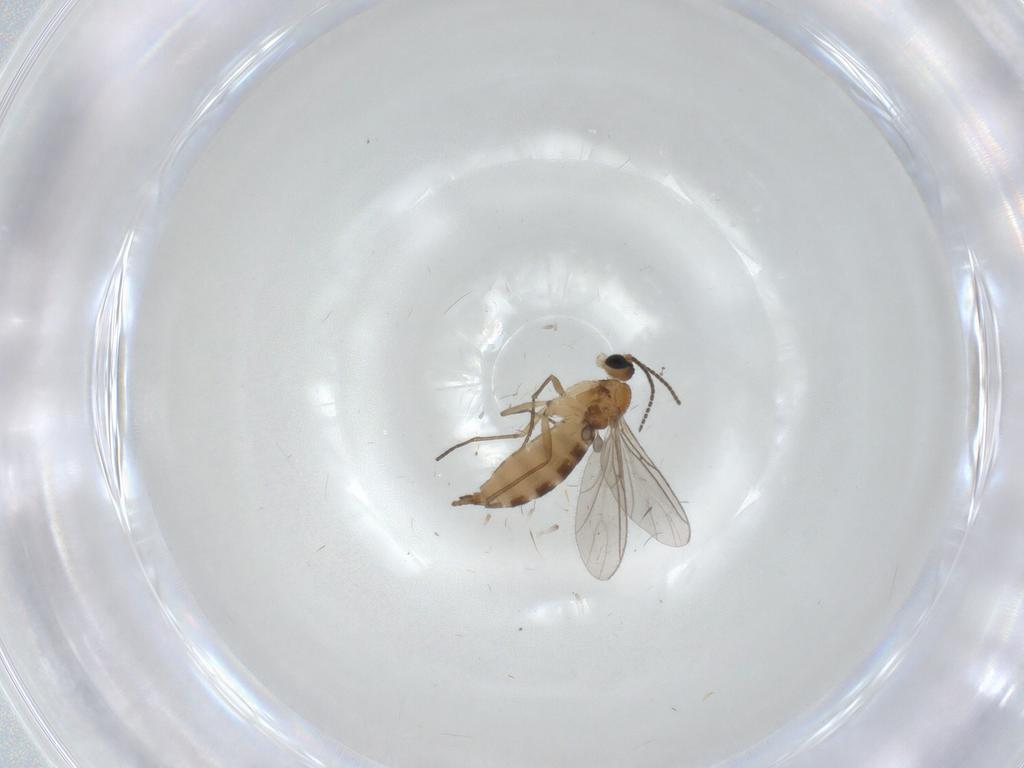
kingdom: Animalia
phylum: Arthropoda
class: Insecta
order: Diptera
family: Sciaridae
